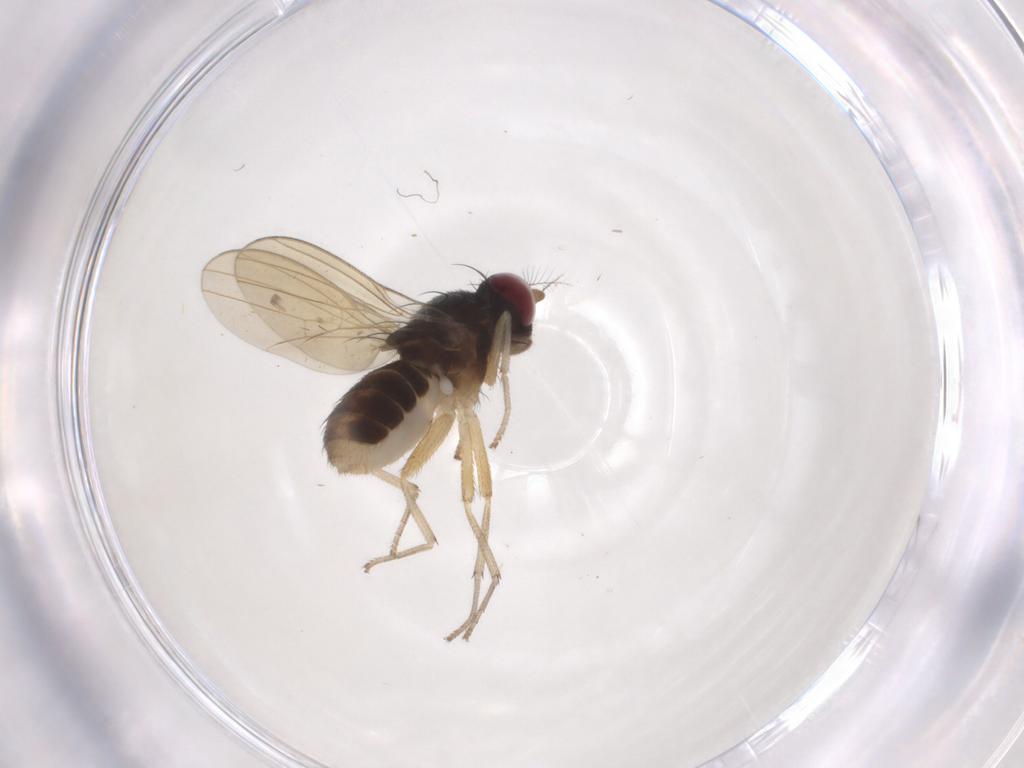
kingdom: Animalia
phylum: Arthropoda
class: Insecta
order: Diptera
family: Mycetophilidae
